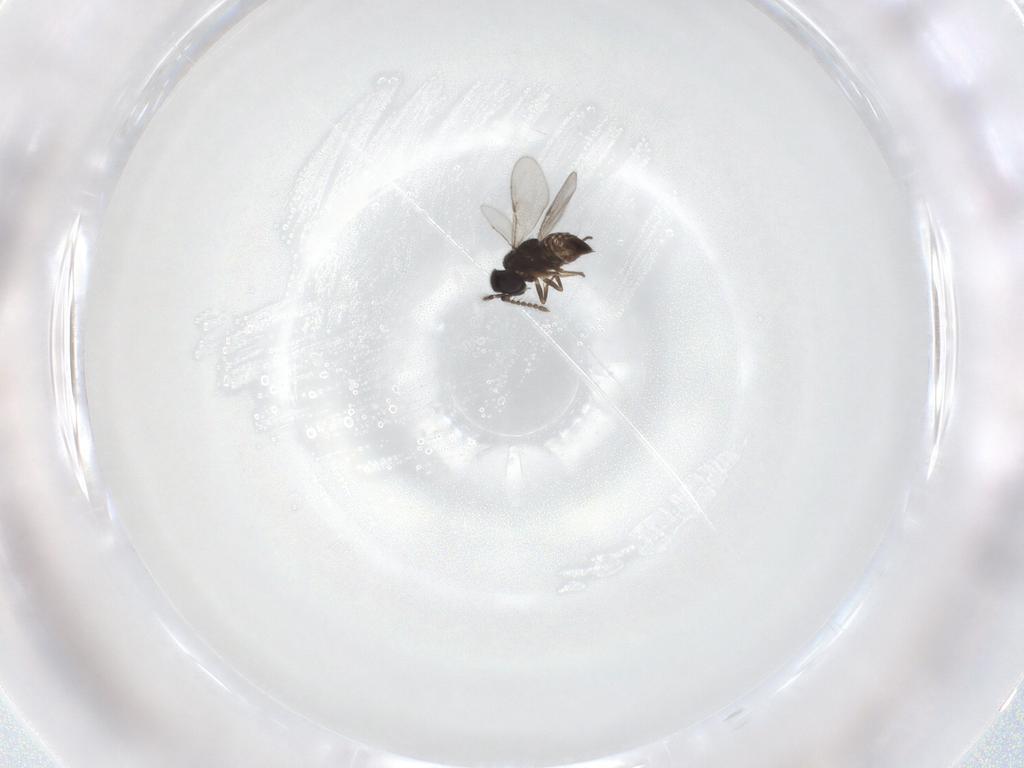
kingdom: Animalia
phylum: Arthropoda
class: Insecta
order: Hymenoptera
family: Encyrtidae
